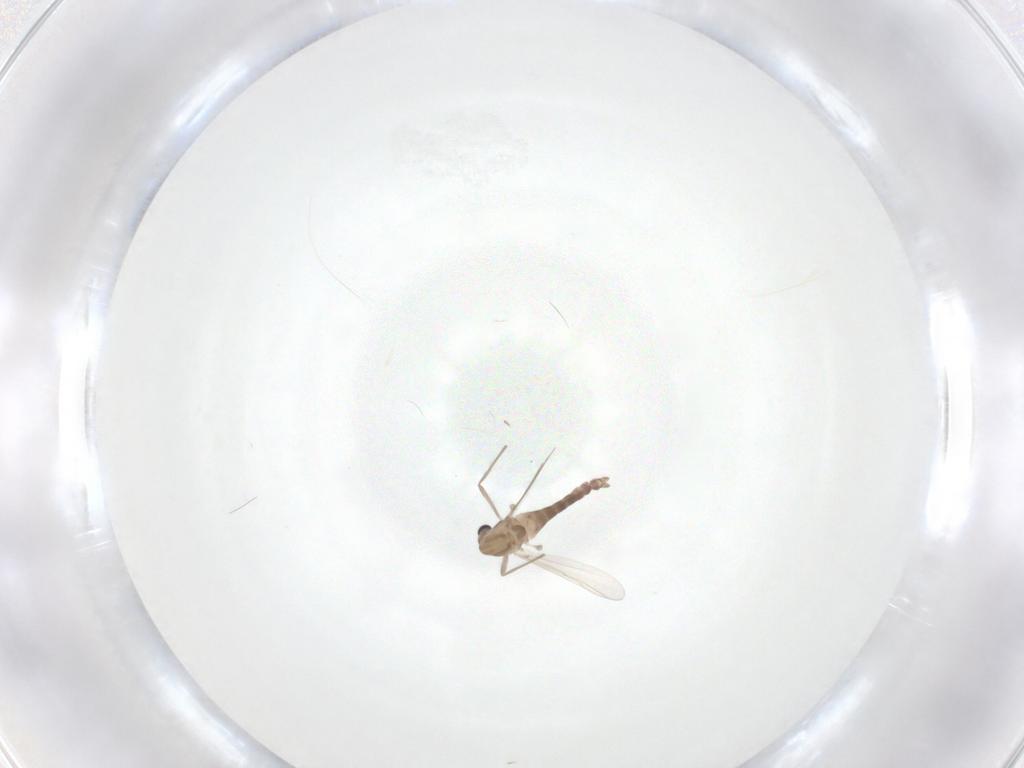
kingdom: Animalia
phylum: Arthropoda
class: Insecta
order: Diptera
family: Chironomidae
